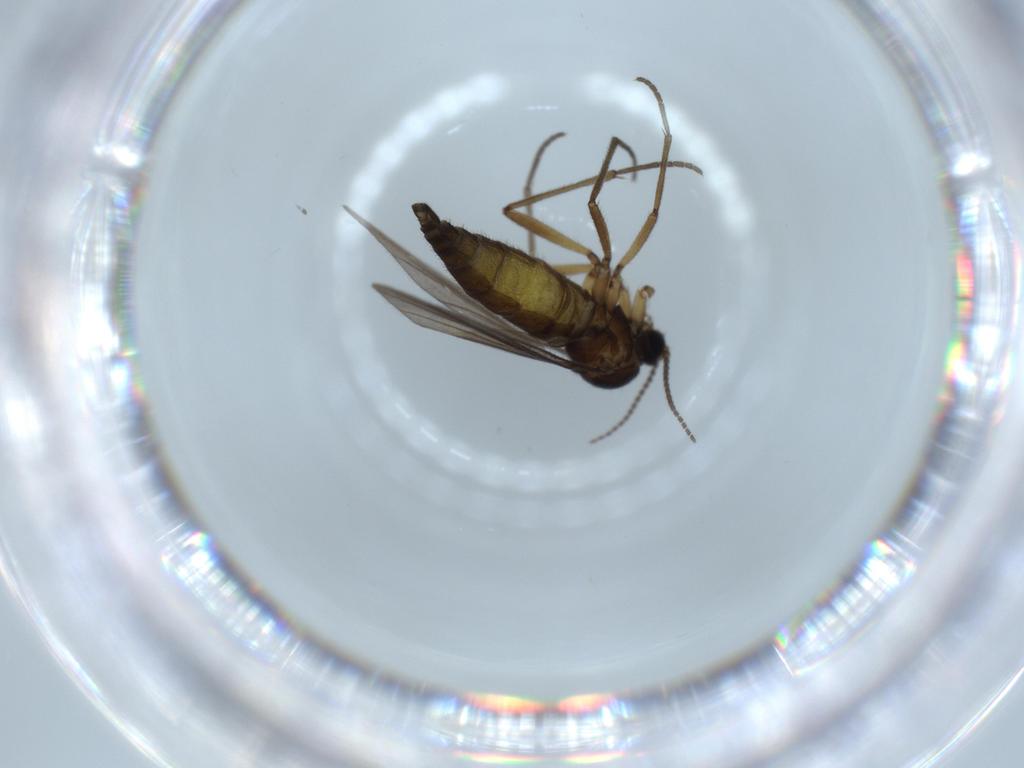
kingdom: Animalia
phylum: Arthropoda
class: Insecta
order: Diptera
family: Sciaridae
